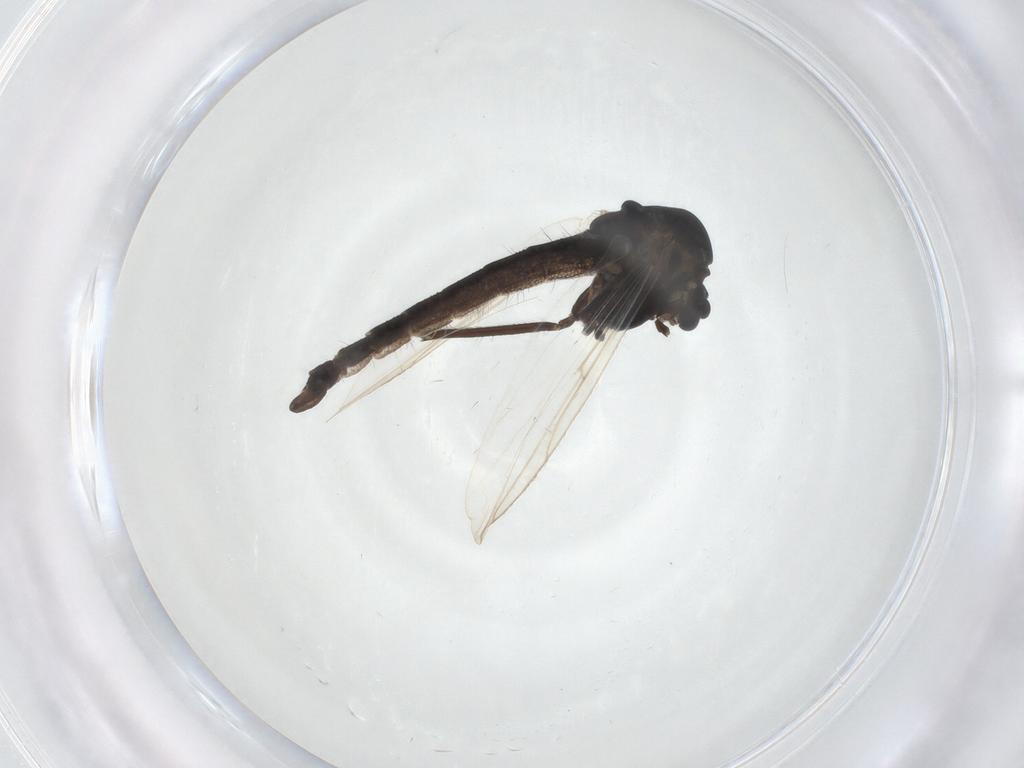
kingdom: Animalia
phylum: Arthropoda
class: Insecta
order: Diptera
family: Chironomidae
